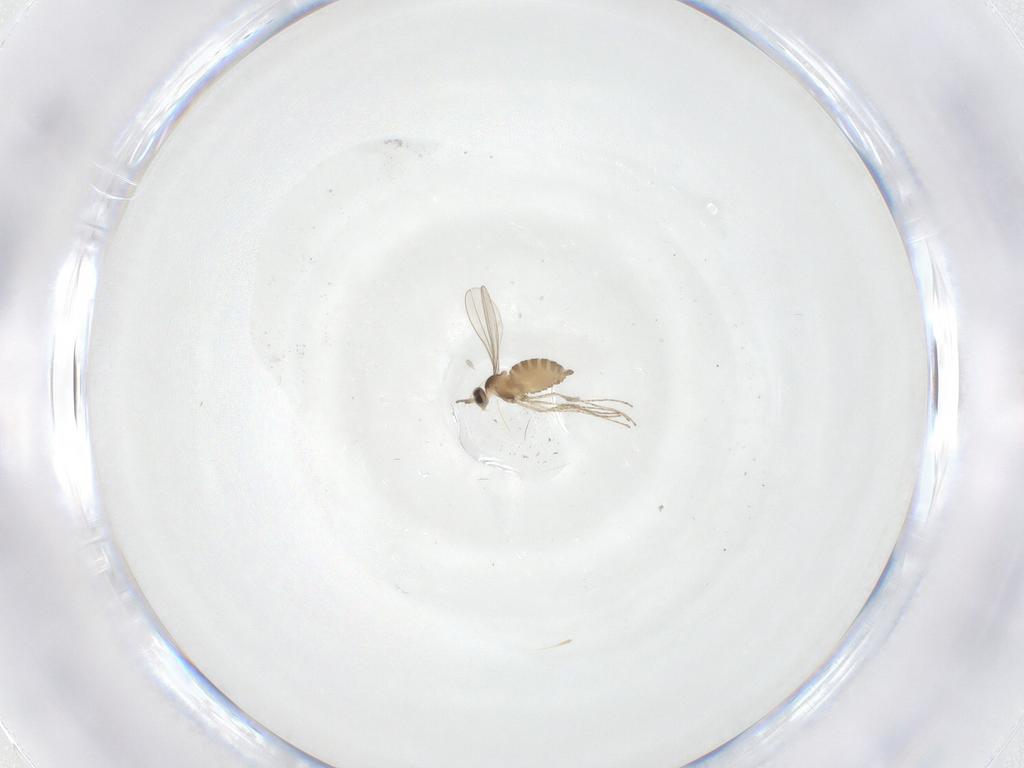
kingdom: Animalia
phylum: Arthropoda
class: Insecta
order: Diptera
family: Cecidomyiidae
